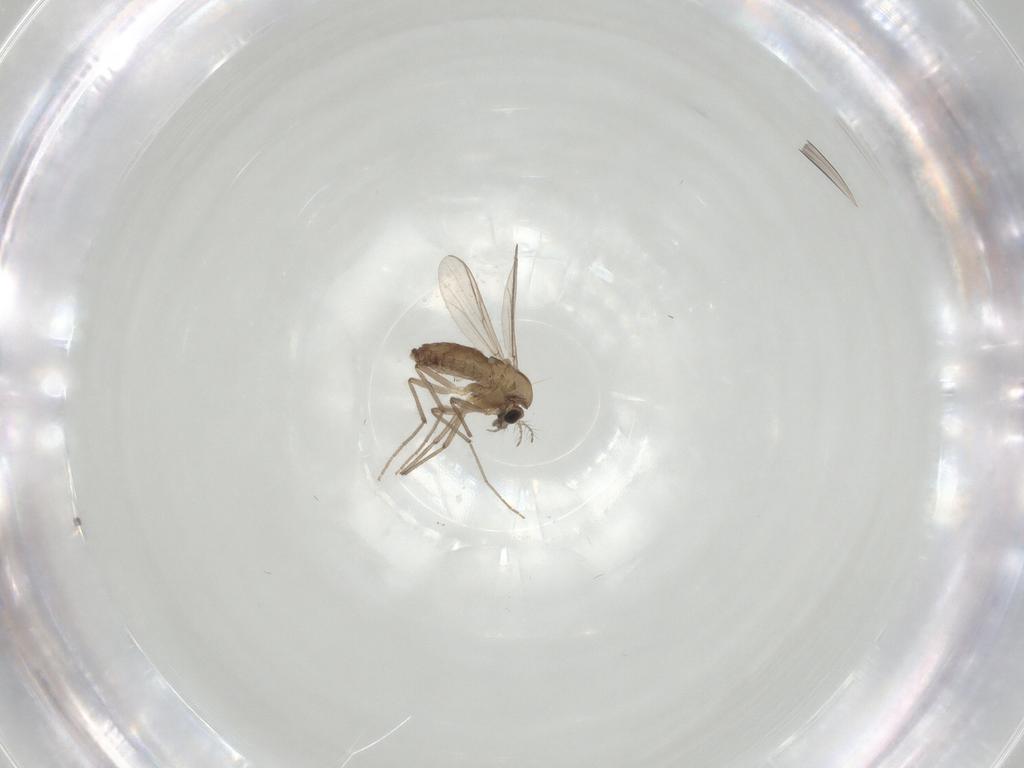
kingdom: Animalia
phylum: Arthropoda
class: Insecta
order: Diptera
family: Chironomidae
